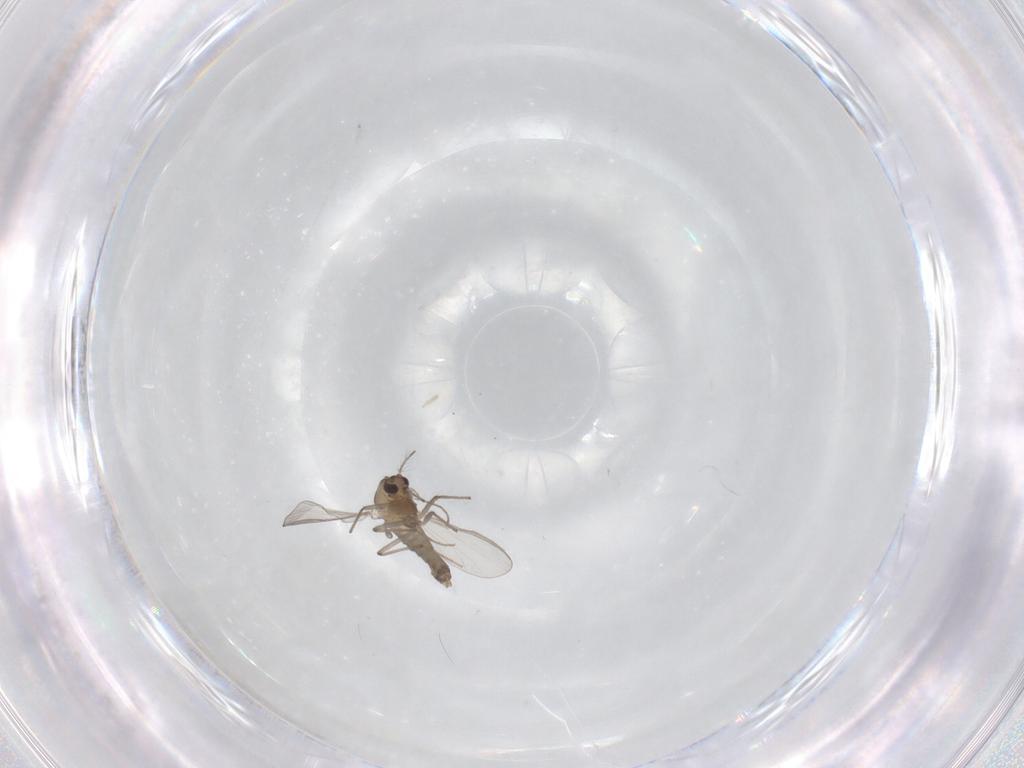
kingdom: Animalia
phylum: Arthropoda
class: Insecta
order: Diptera
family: Chironomidae
